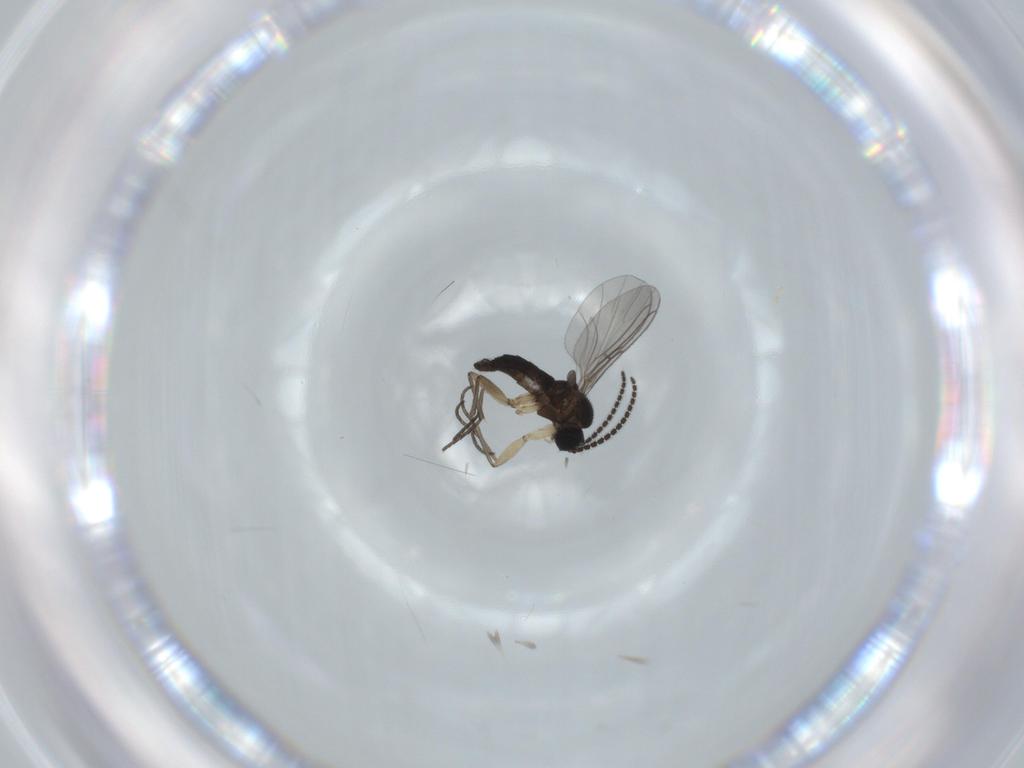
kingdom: Animalia
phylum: Arthropoda
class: Insecta
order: Diptera
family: Sciaridae
